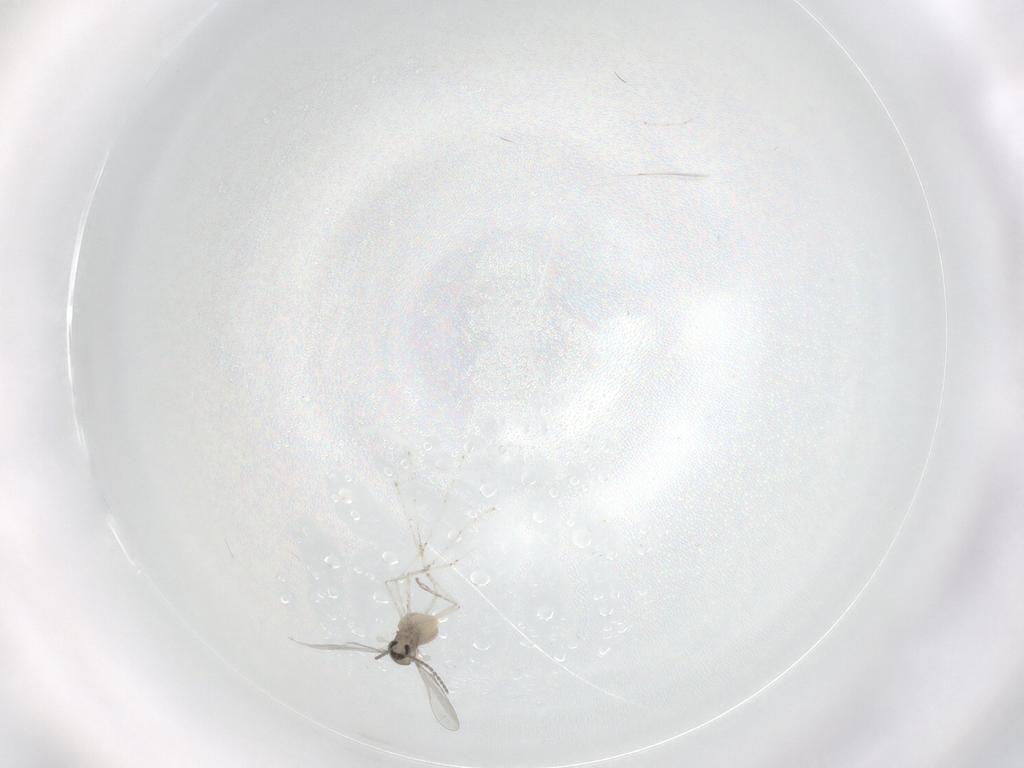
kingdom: Animalia
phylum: Arthropoda
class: Insecta
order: Diptera
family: Cecidomyiidae
